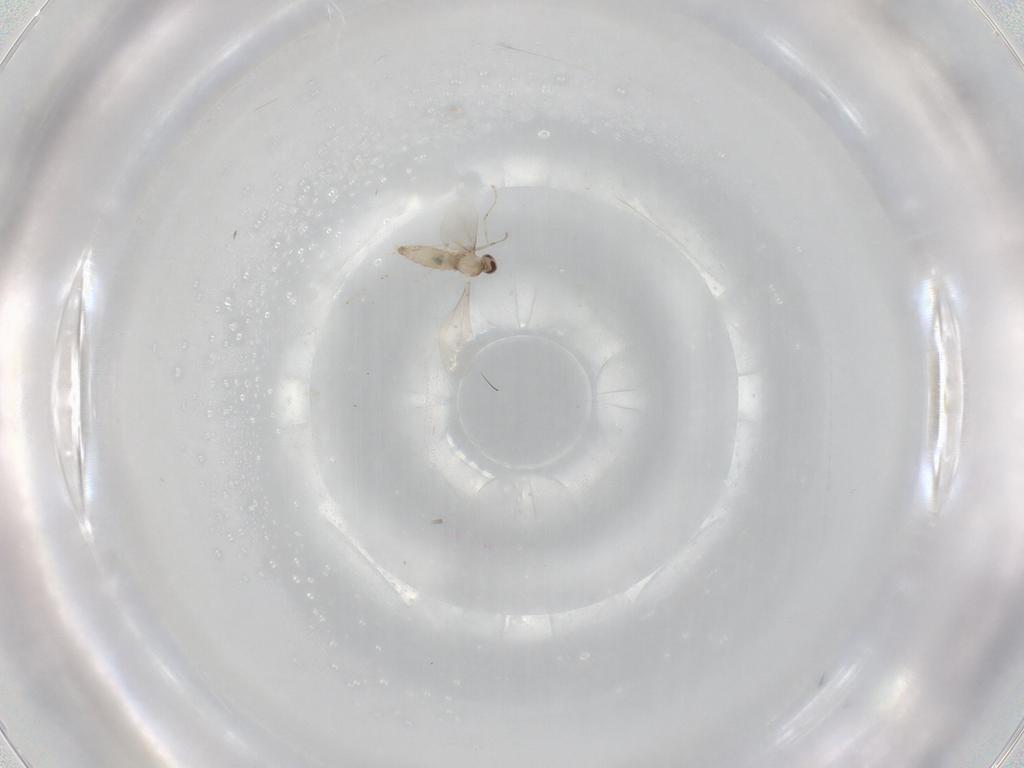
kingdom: Animalia
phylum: Arthropoda
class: Insecta
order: Diptera
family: Cecidomyiidae
